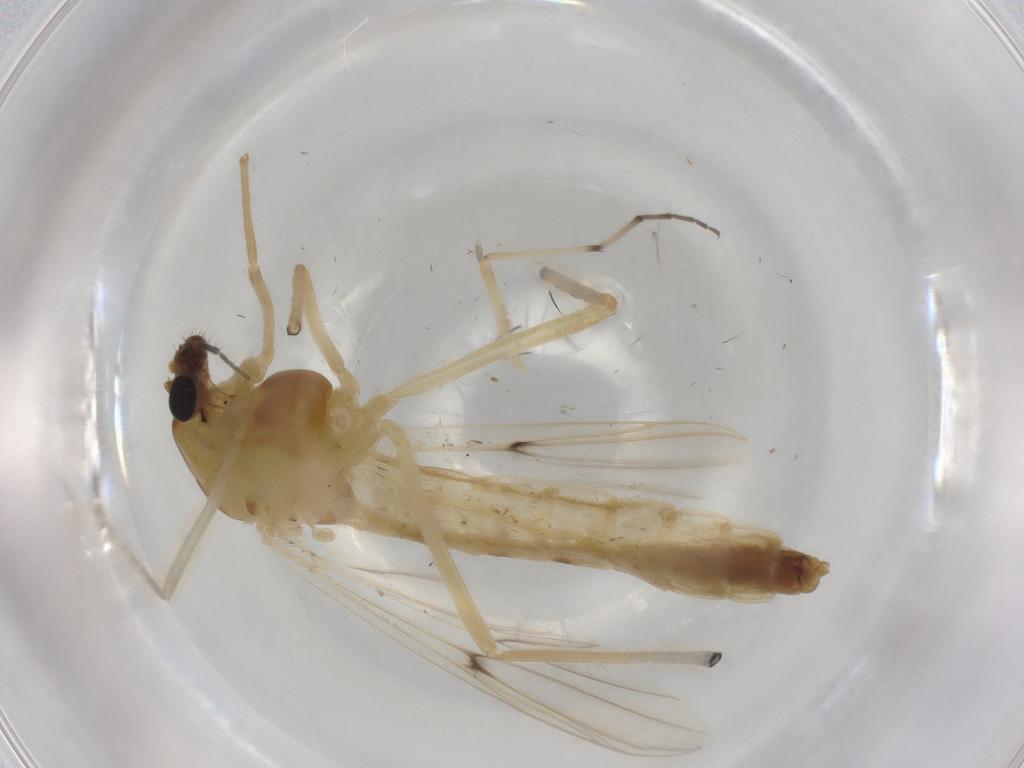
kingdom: Animalia
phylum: Arthropoda
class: Insecta
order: Diptera
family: Chironomidae
